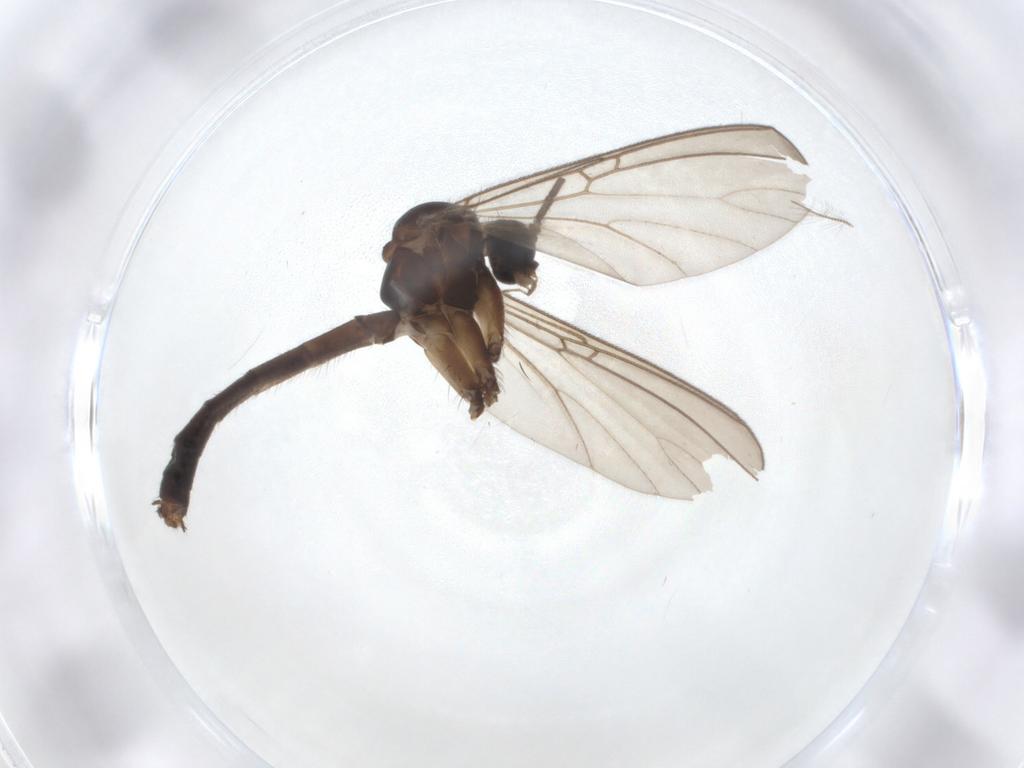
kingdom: Animalia
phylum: Arthropoda
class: Insecta
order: Diptera
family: Mycetophilidae
